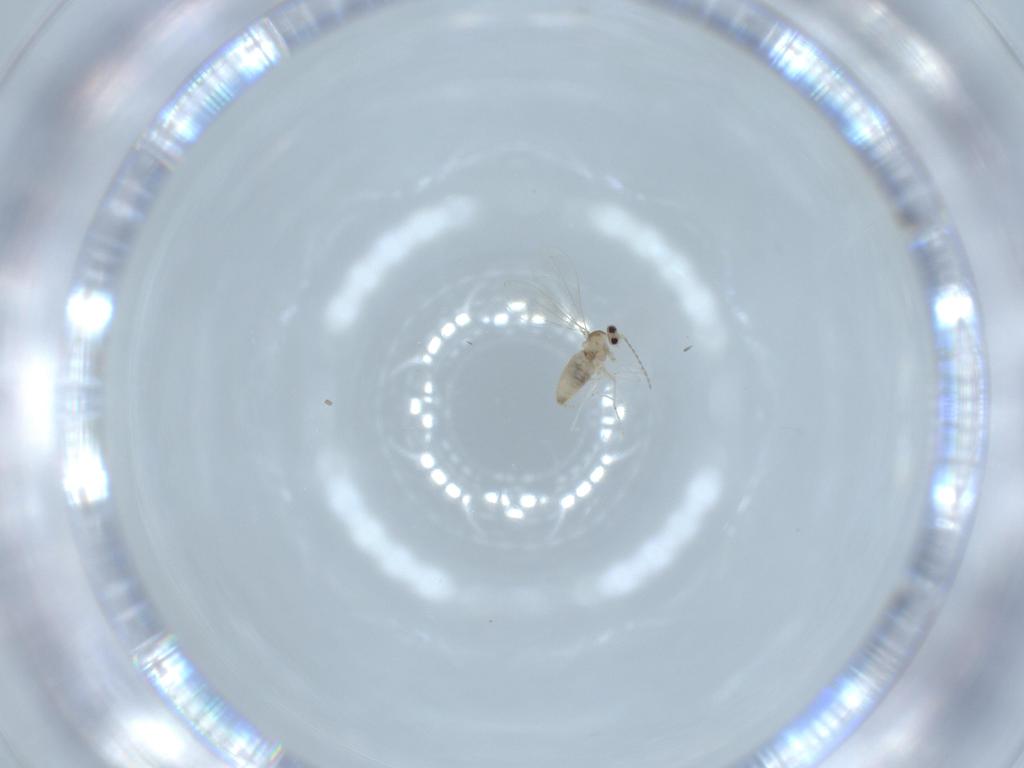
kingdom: Animalia
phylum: Arthropoda
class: Insecta
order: Diptera
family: Cecidomyiidae
